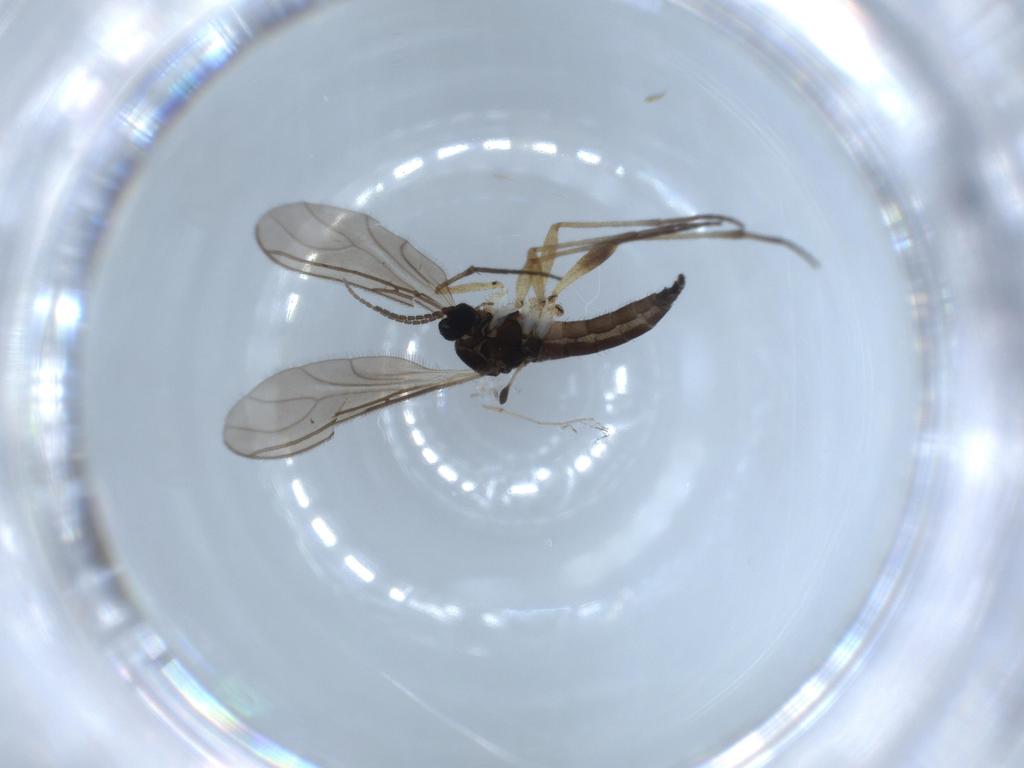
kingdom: Animalia
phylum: Arthropoda
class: Insecta
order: Diptera
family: Sciaridae
